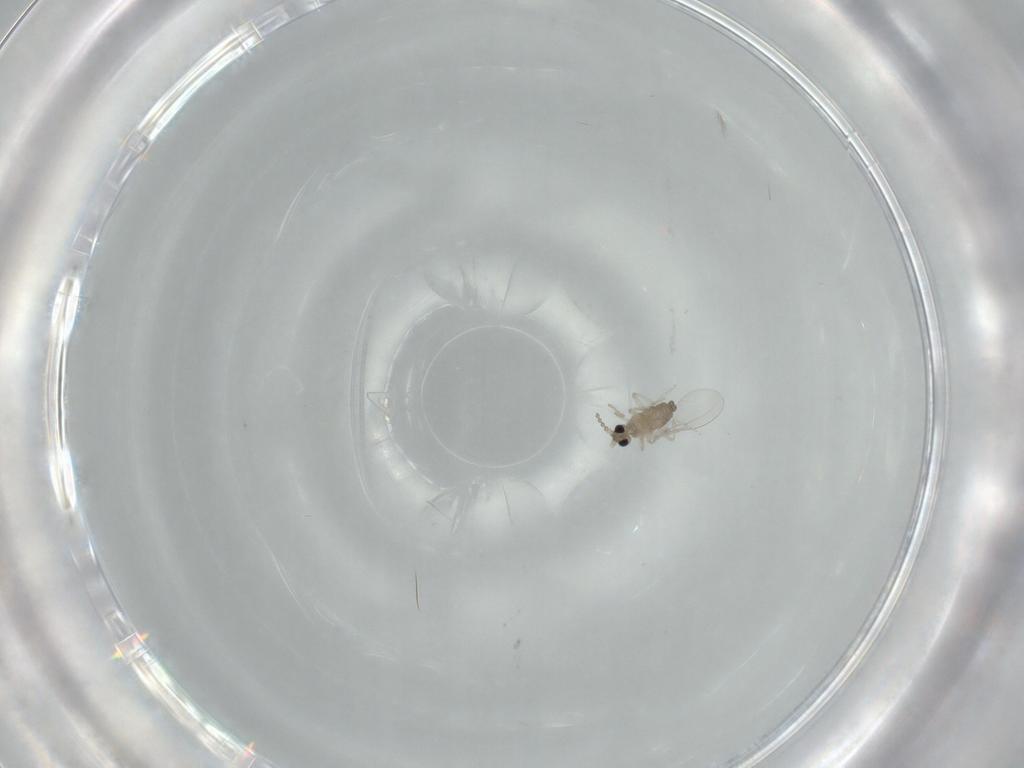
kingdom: Animalia
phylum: Arthropoda
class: Insecta
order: Diptera
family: Cecidomyiidae
